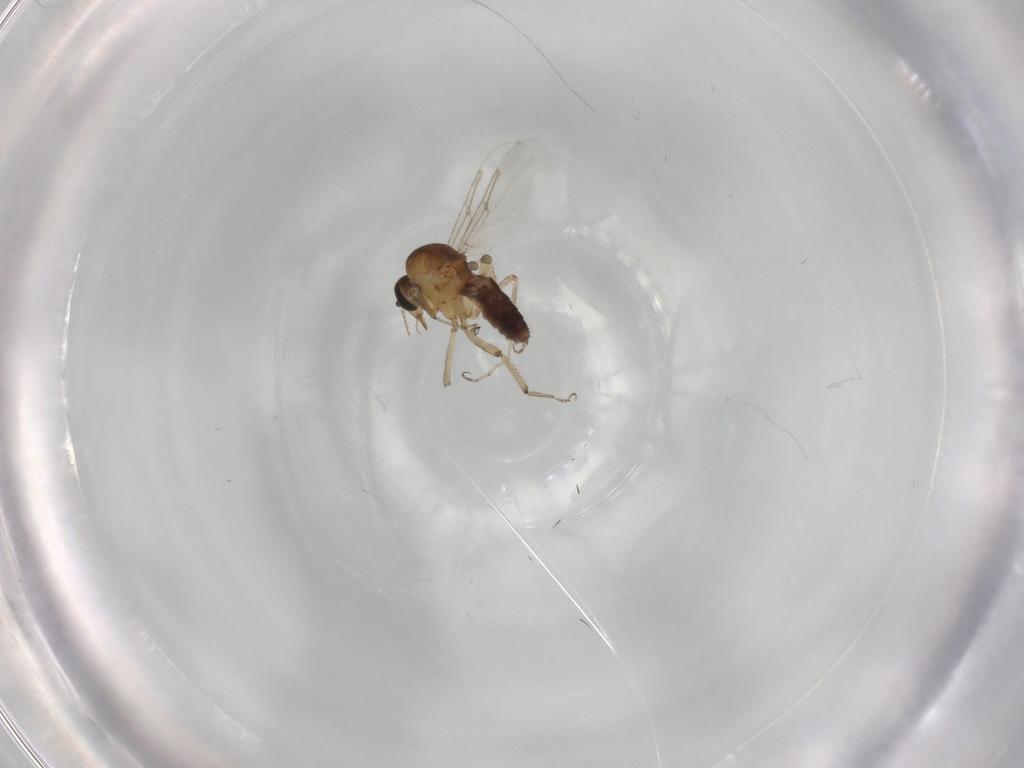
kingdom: Animalia
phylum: Arthropoda
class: Insecta
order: Diptera
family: Ceratopogonidae
